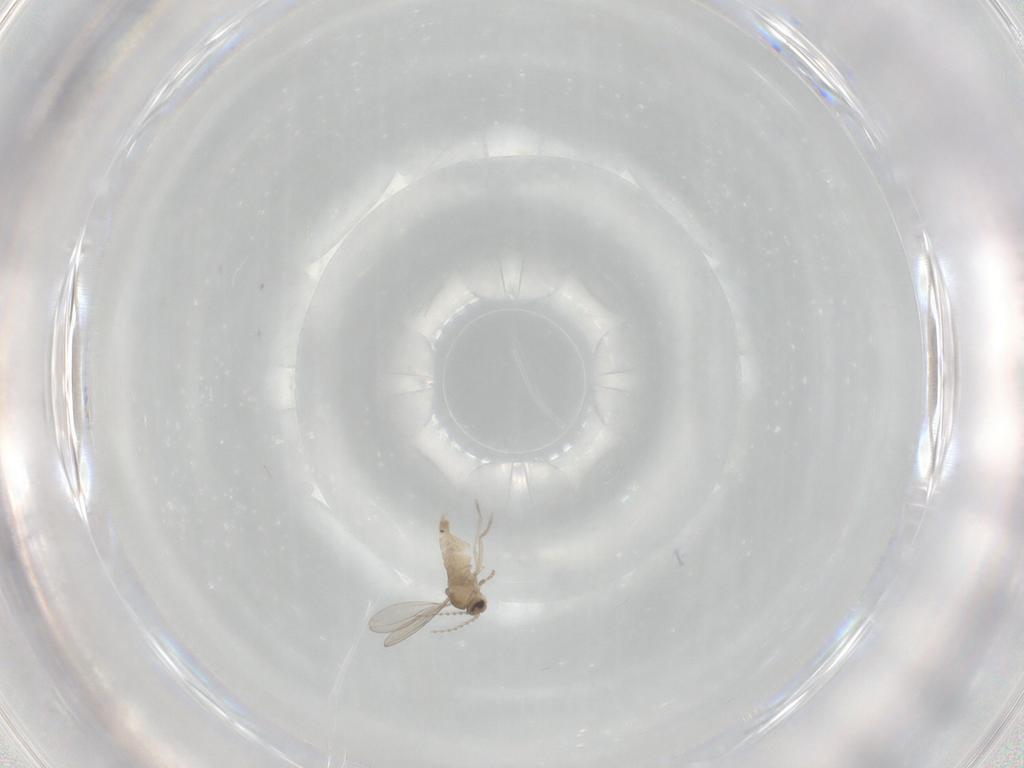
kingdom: Animalia
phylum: Arthropoda
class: Insecta
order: Diptera
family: Cecidomyiidae
